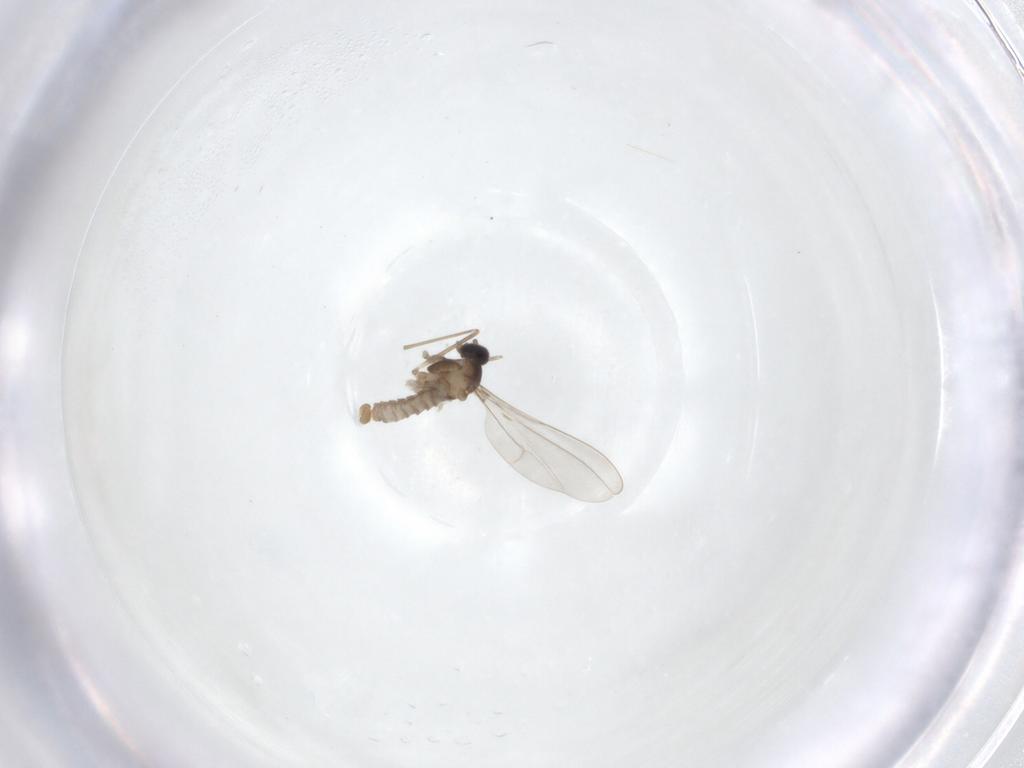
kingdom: Animalia
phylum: Arthropoda
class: Insecta
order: Diptera
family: Cecidomyiidae
